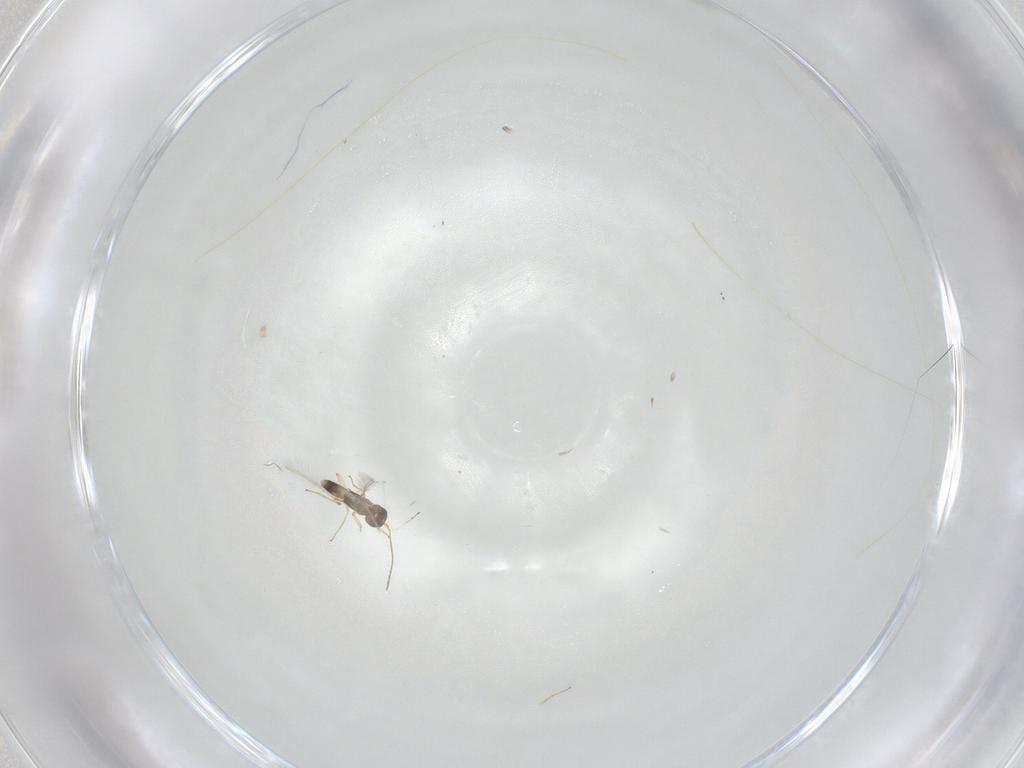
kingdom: Animalia
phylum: Arthropoda
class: Insecta
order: Hymenoptera
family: Mymaridae
